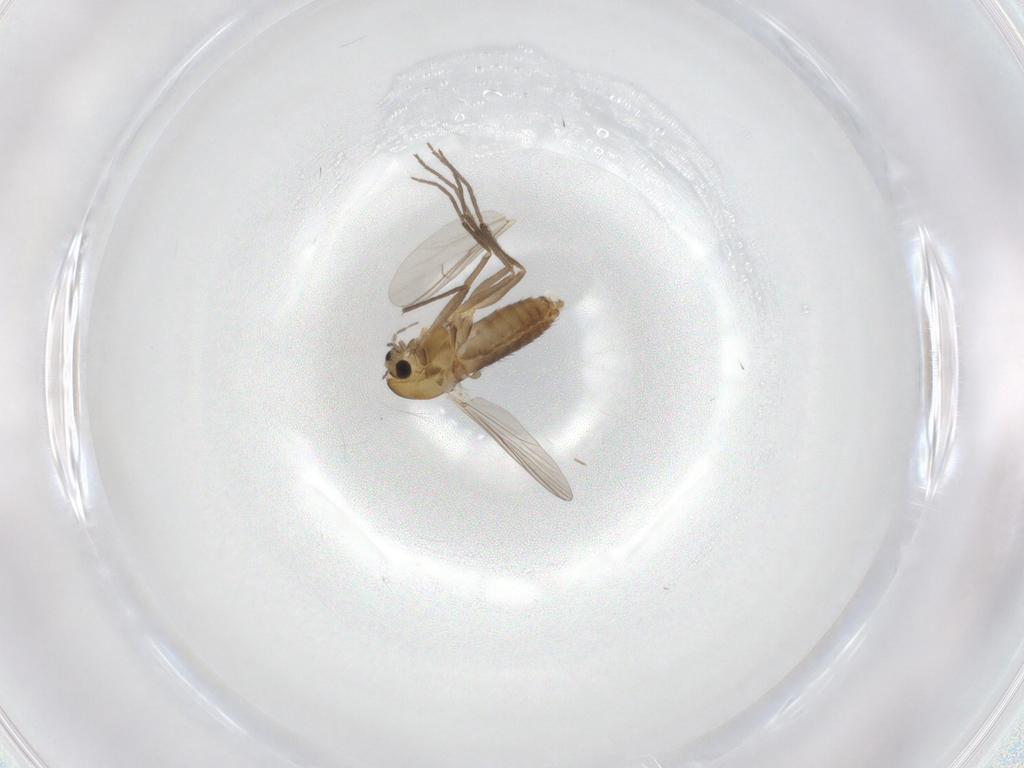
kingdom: Animalia
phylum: Arthropoda
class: Insecta
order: Diptera
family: Chironomidae
